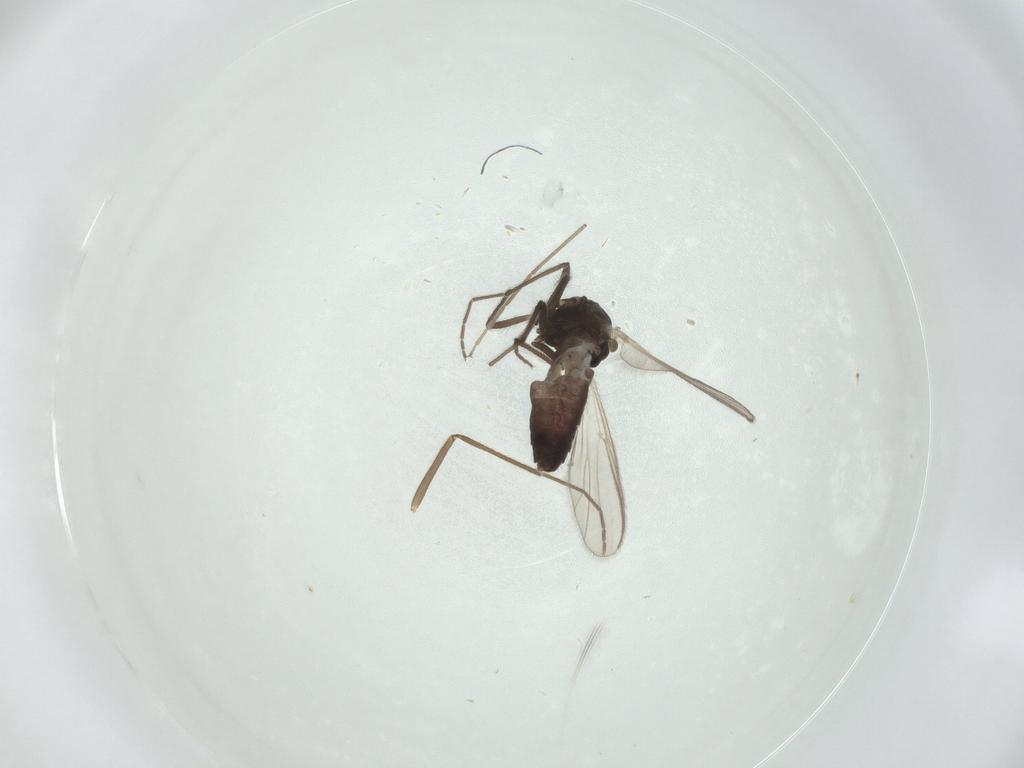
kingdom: Animalia
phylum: Arthropoda
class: Insecta
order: Diptera
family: Chironomidae
